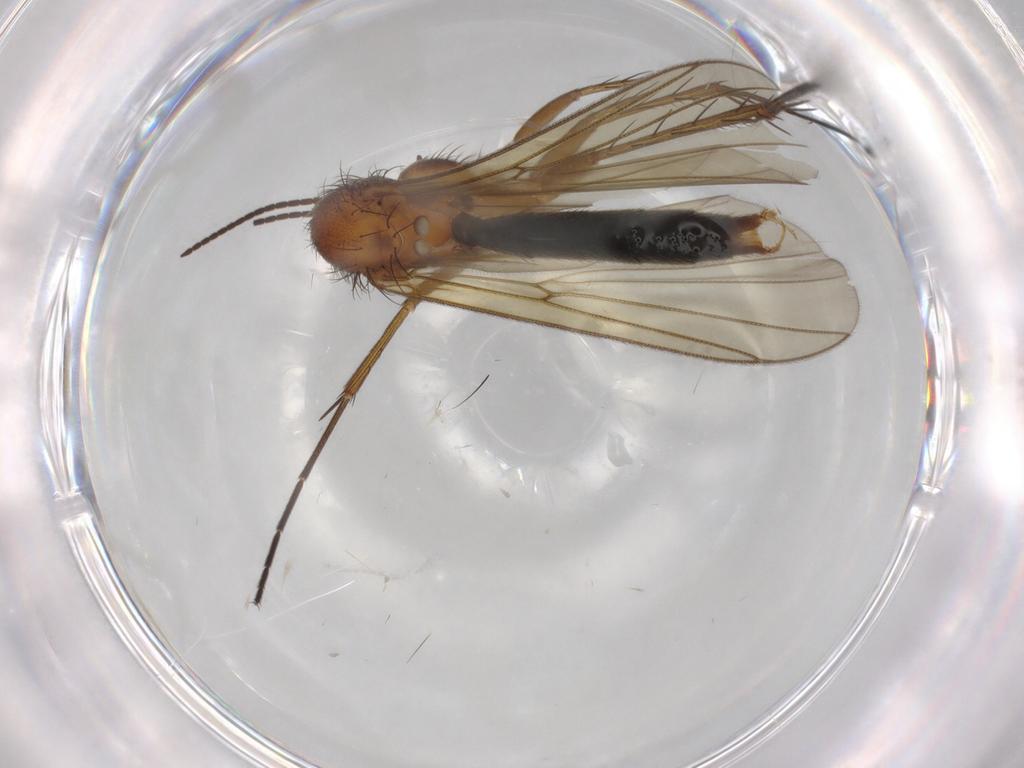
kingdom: Animalia
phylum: Arthropoda
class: Insecta
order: Diptera
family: Mycetophilidae
